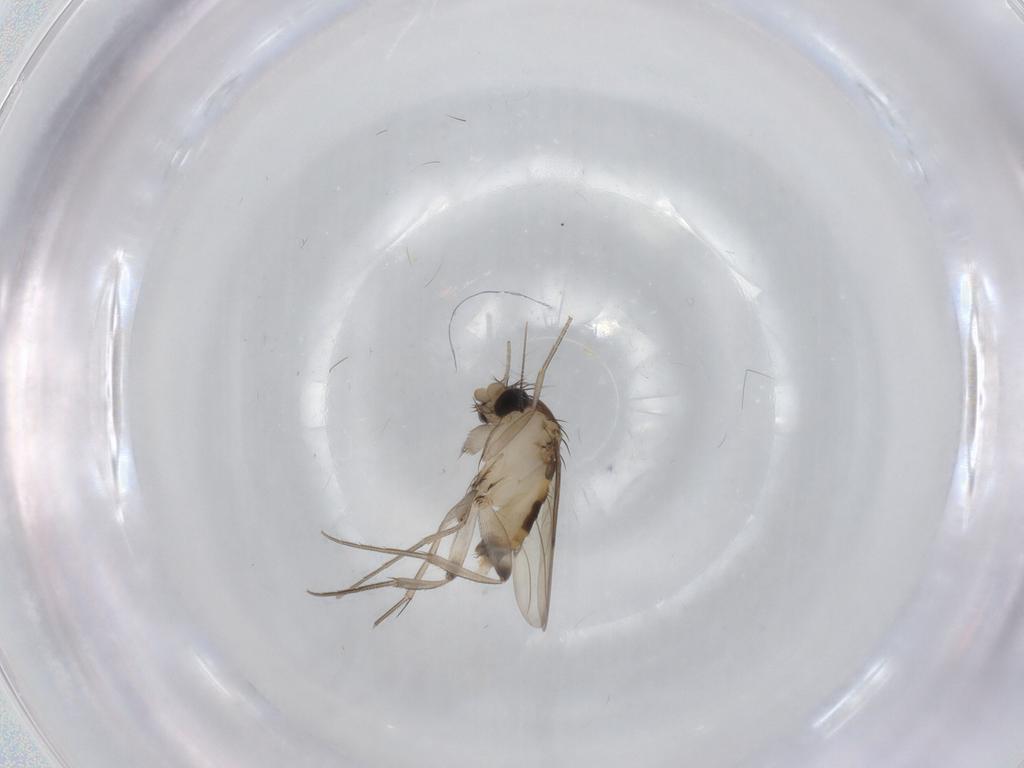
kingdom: Animalia
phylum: Arthropoda
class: Insecta
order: Diptera
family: Chironomidae
